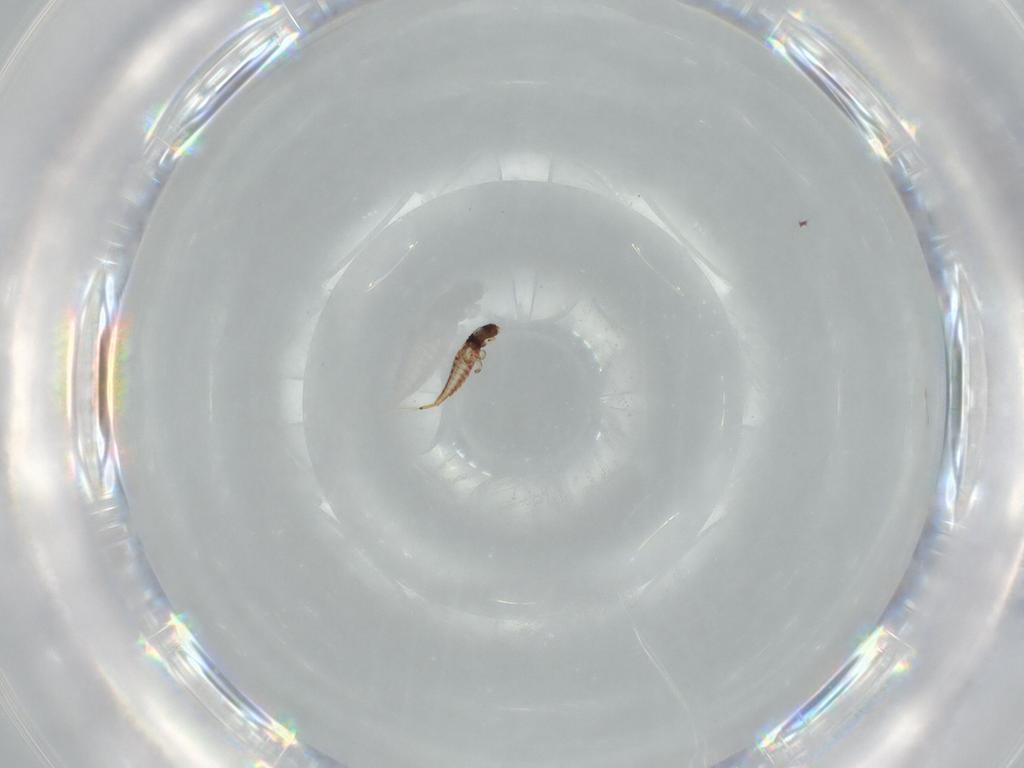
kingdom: Animalia
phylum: Arthropoda
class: Insecta
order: Thysanoptera
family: Phlaeothripidae
